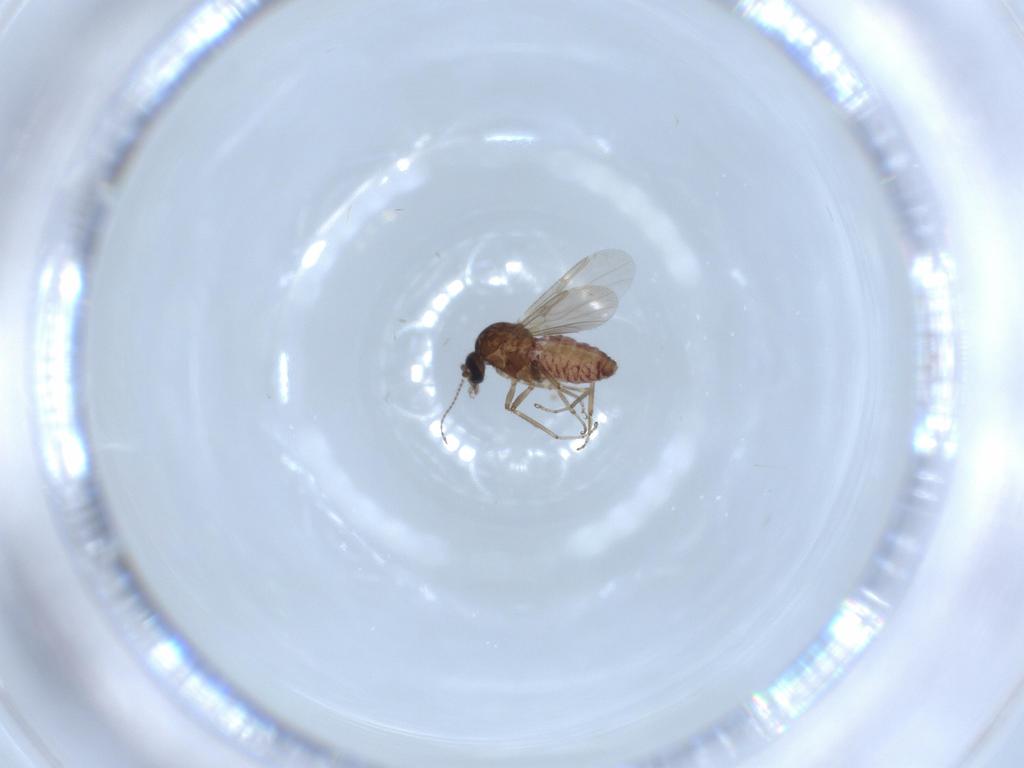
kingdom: Animalia
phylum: Arthropoda
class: Insecta
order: Diptera
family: Ceratopogonidae
